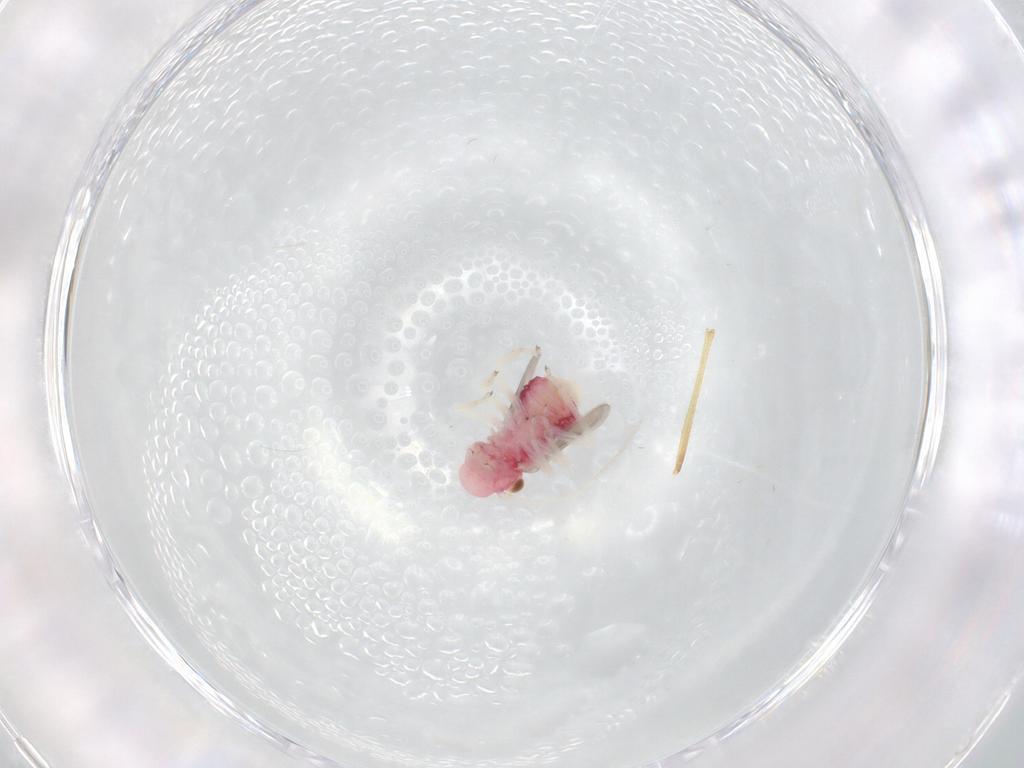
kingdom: Animalia
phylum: Arthropoda
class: Insecta
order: Psocodea
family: Caeciliusidae
